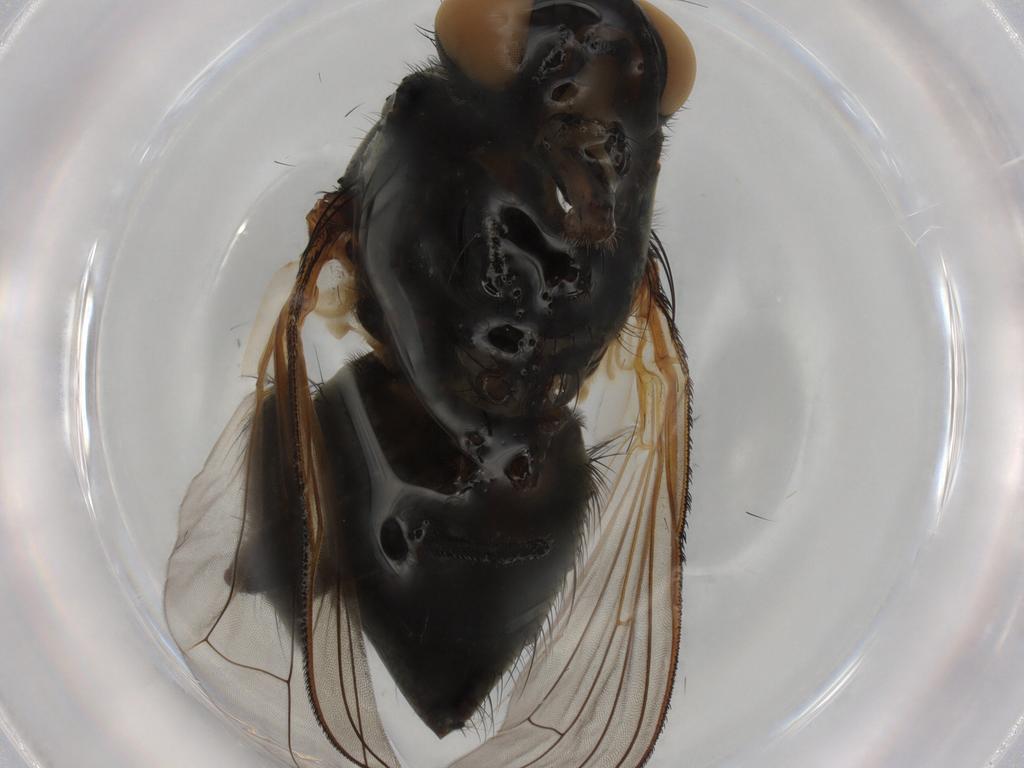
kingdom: Animalia
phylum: Arthropoda
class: Insecta
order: Diptera
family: Muscidae
